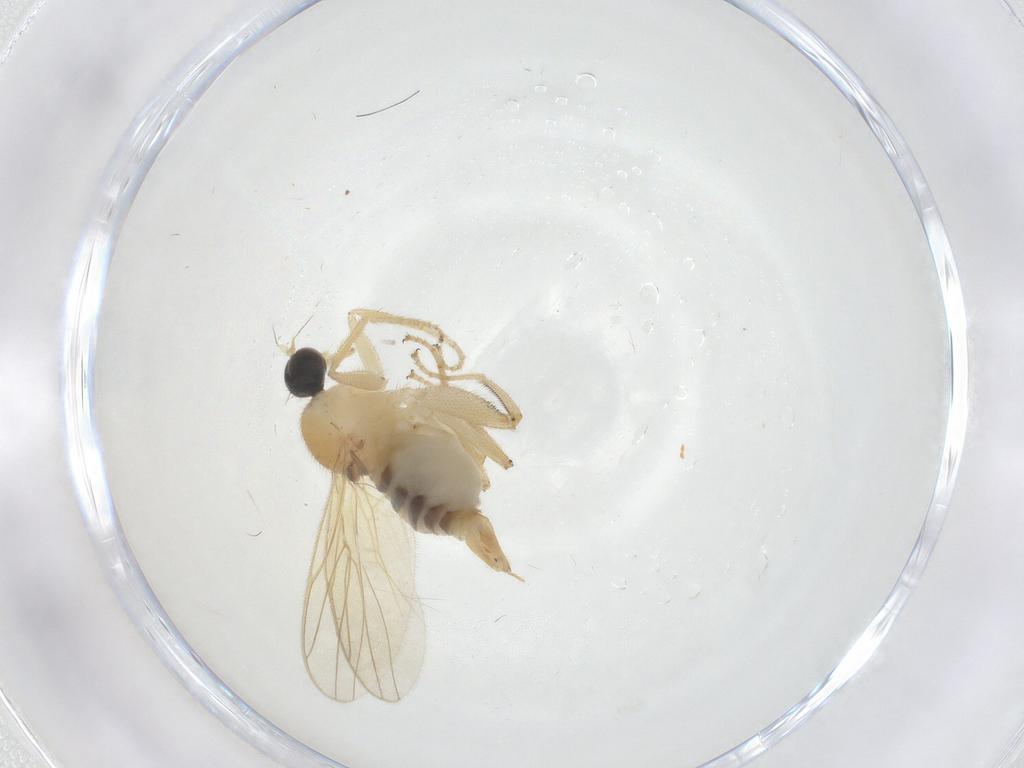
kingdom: Animalia
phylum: Arthropoda
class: Insecta
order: Diptera
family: Hybotidae
